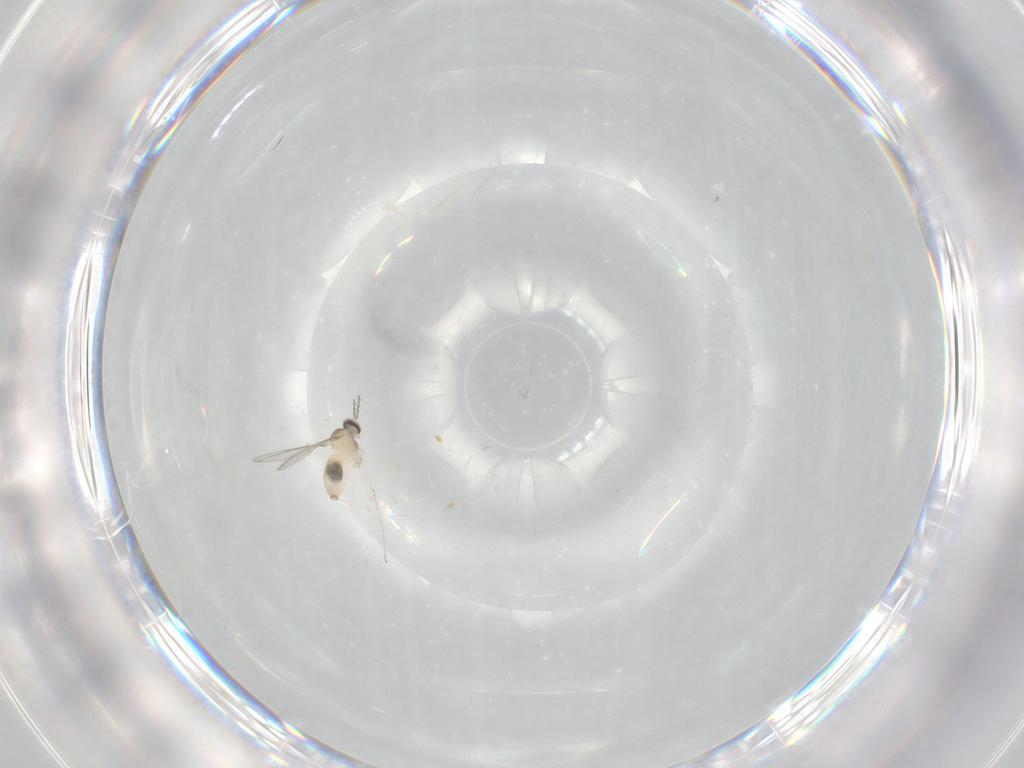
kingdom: Animalia
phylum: Arthropoda
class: Insecta
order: Diptera
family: Cecidomyiidae
